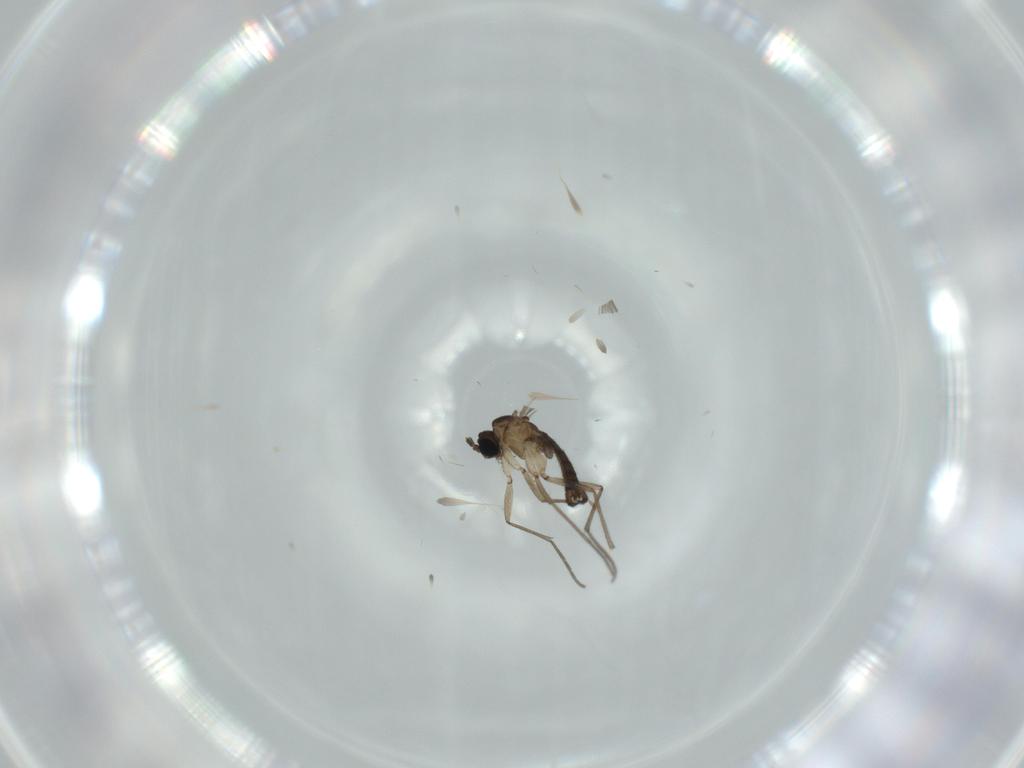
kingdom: Animalia
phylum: Arthropoda
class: Insecta
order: Diptera
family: Sciaridae
